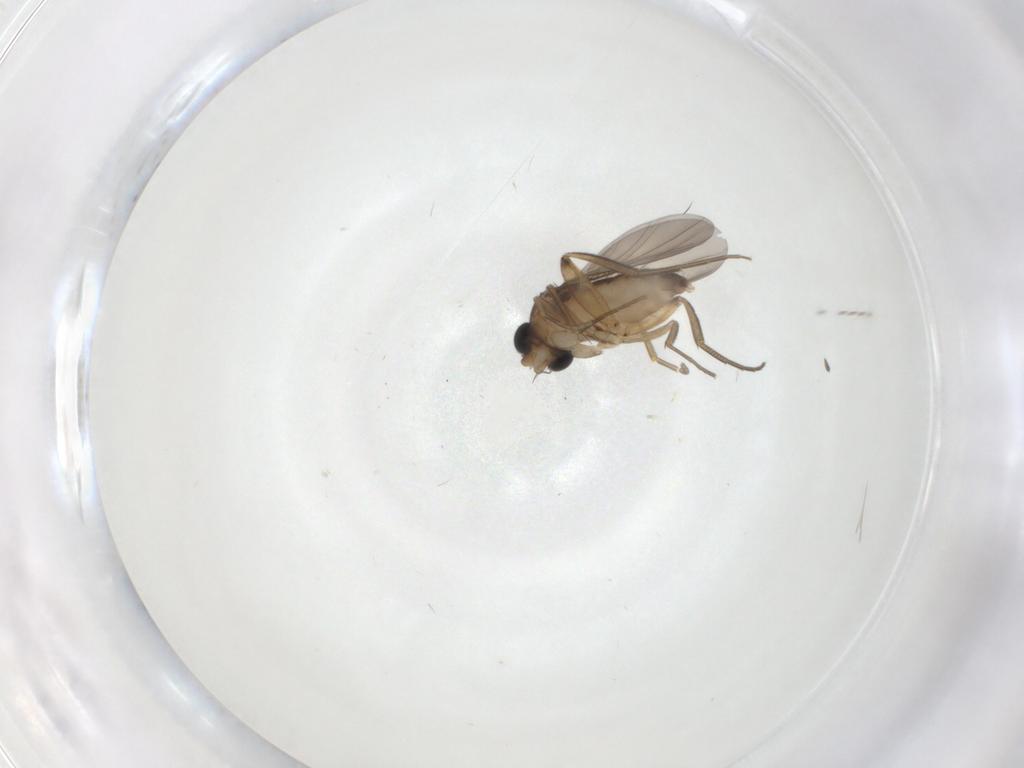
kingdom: Animalia
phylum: Arthropoda
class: Insecta
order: Diptera
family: Phoridae
